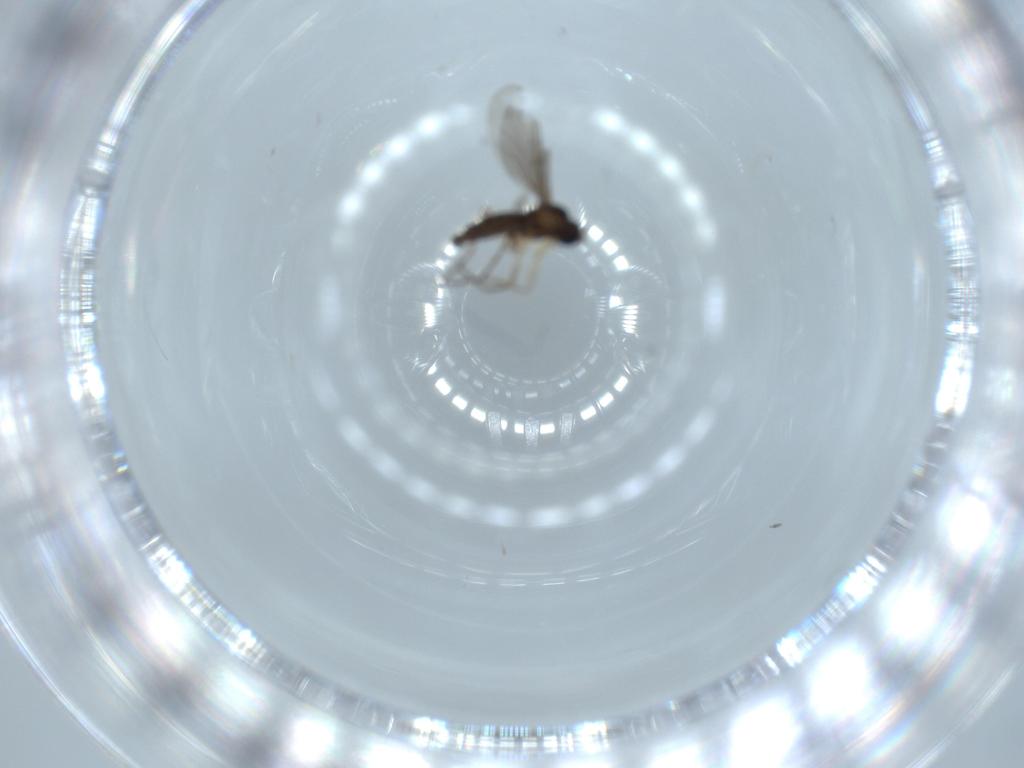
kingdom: Animalia
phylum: Arthropoda
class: Insecta
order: Diptera
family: Sciaridae
